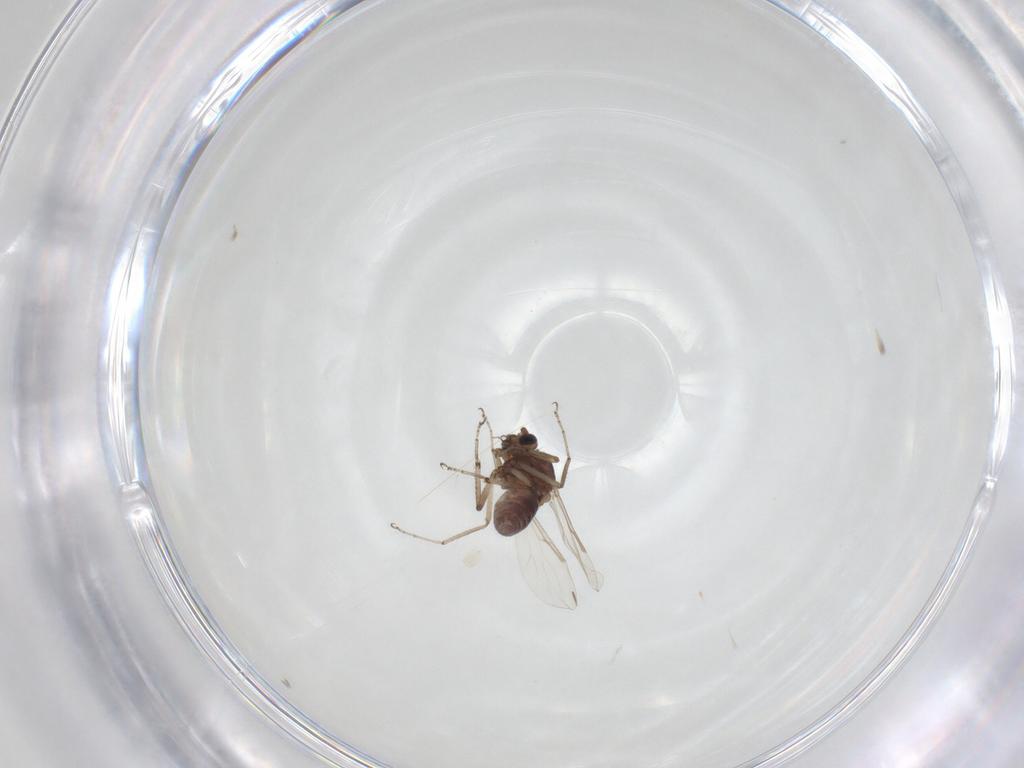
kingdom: Animalia
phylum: Arthropoda
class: Insecta
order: Diptera
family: Ceratopogonidae
